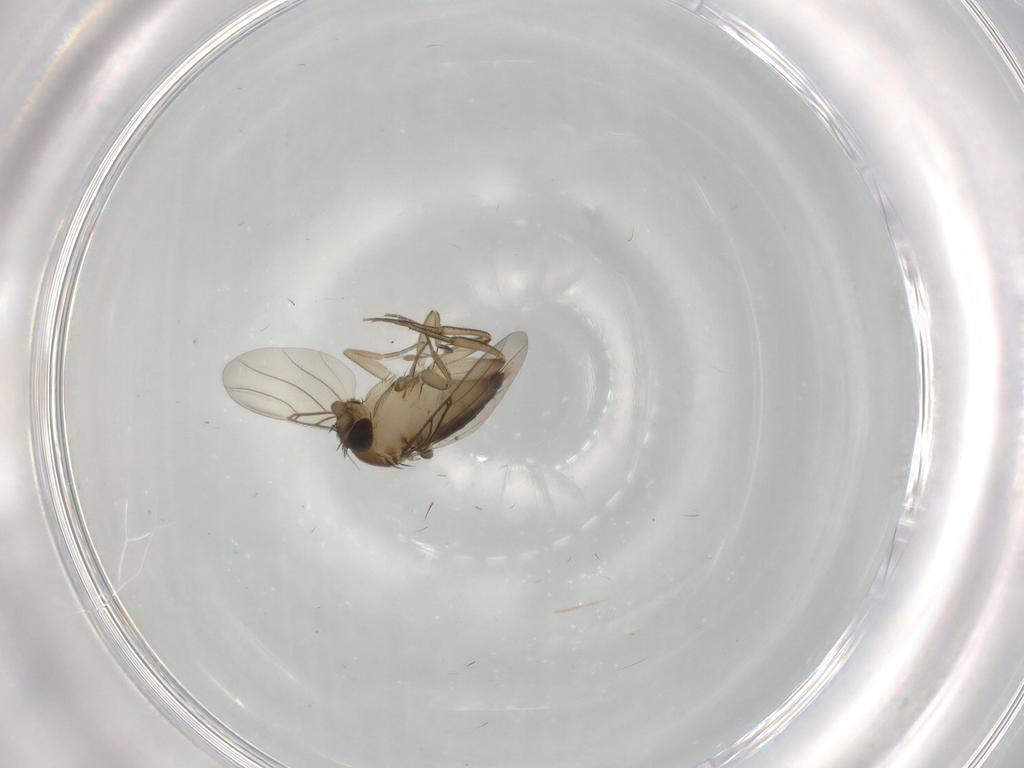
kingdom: Animalia
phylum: Arthropoda
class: Insecta
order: Diptera
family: Phoridae
